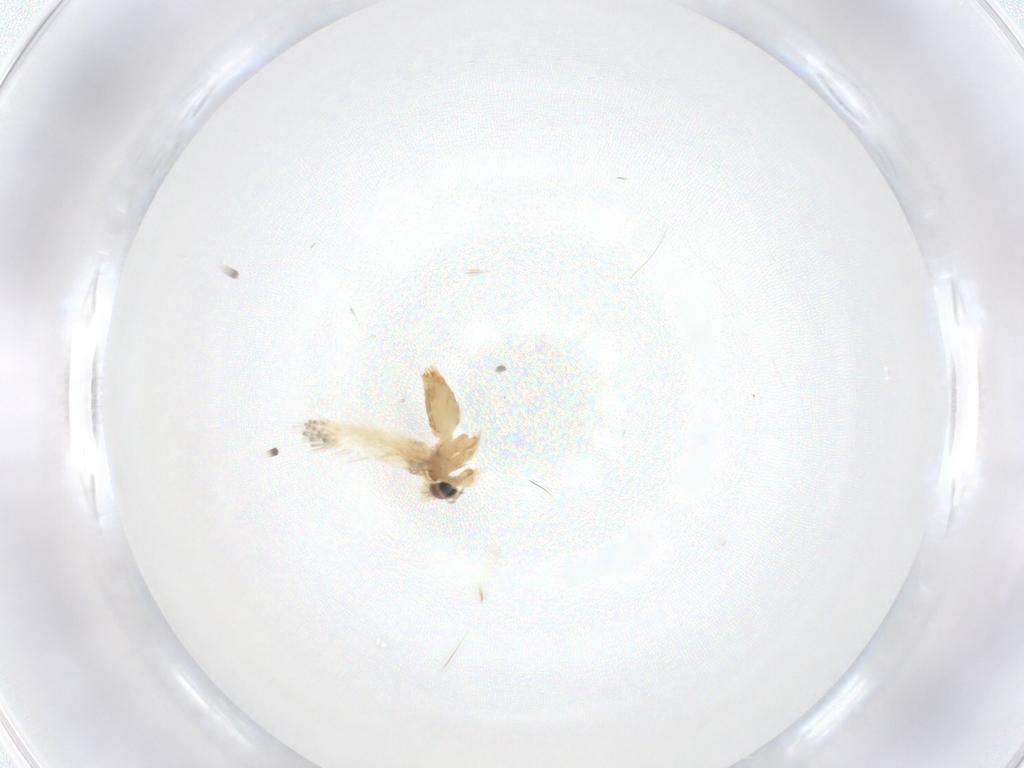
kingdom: Animalia
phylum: Arthropoda
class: Insecta
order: Lepidoptera
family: Crambidae
